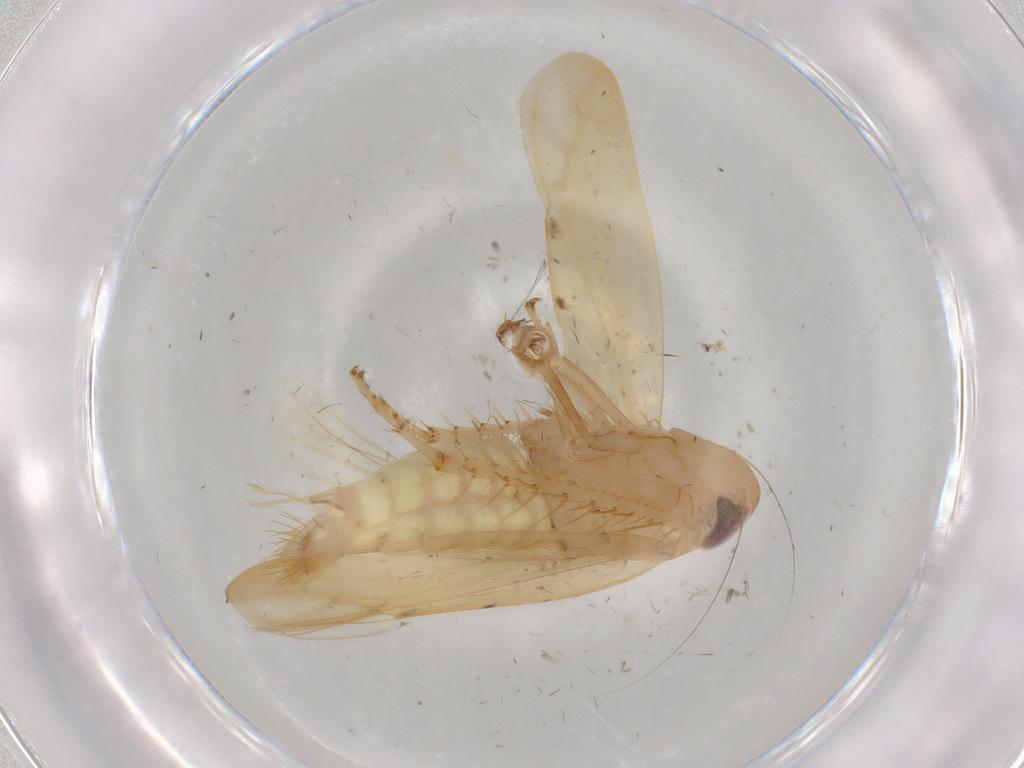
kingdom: Animalia
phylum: Arthropoda
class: Insecta
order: Hemiptera
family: Cicadellidae
